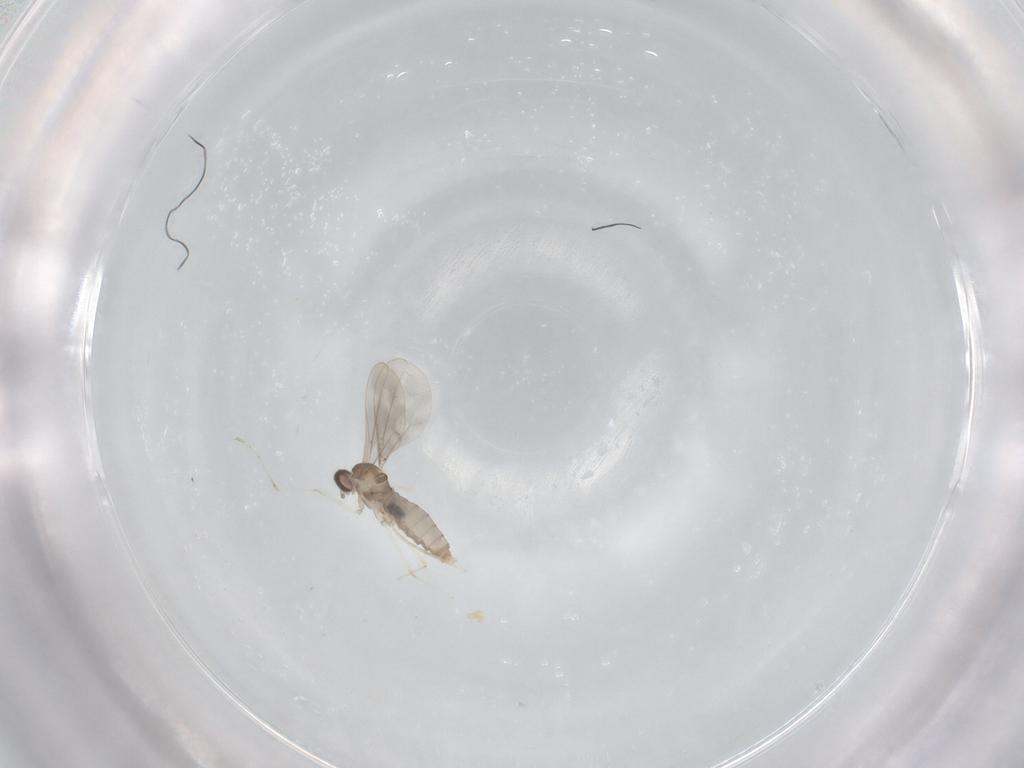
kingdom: Animalia
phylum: Arthropoda
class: Insecta
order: Diptera
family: Cecidomyiidae
